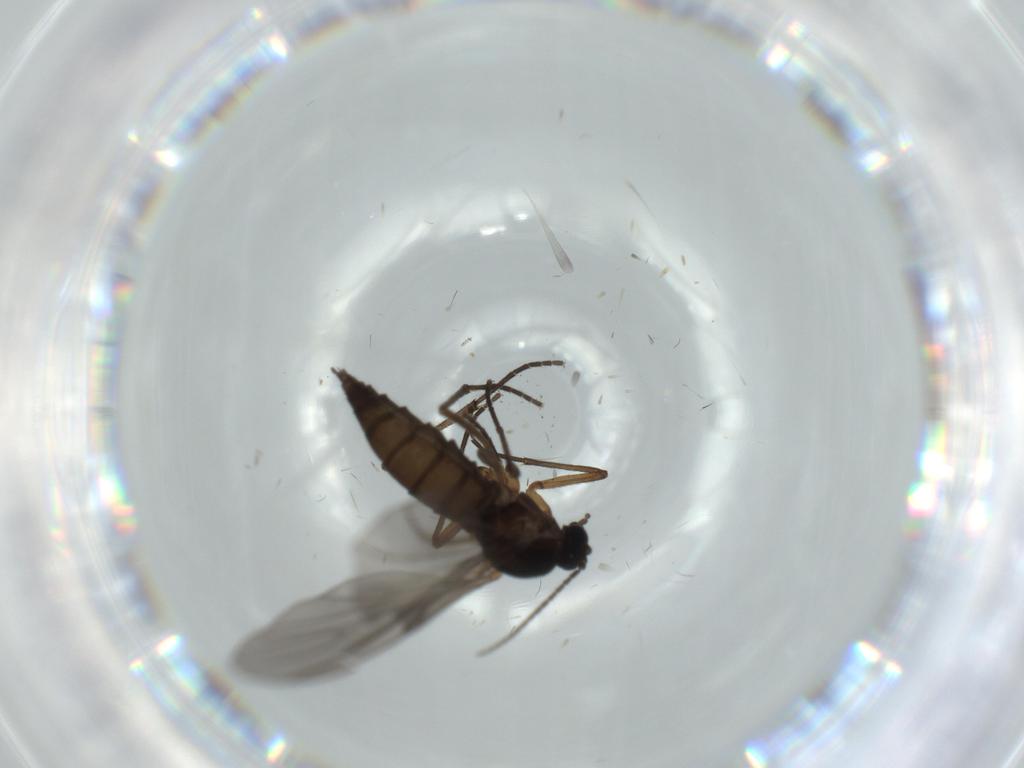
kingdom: Animalia
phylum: Arthropoda
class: Insecta
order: Diptera
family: Sciaridae
